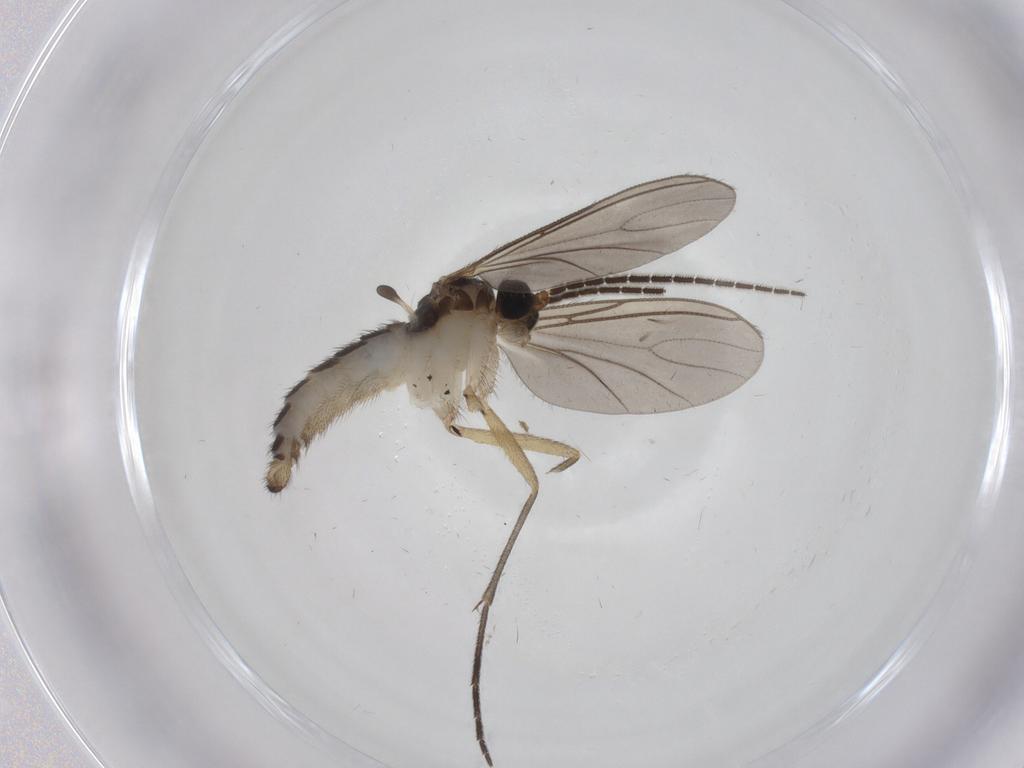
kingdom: Animalia
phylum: Arthropoda
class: Insecta
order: Diptera
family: Sciaridae
